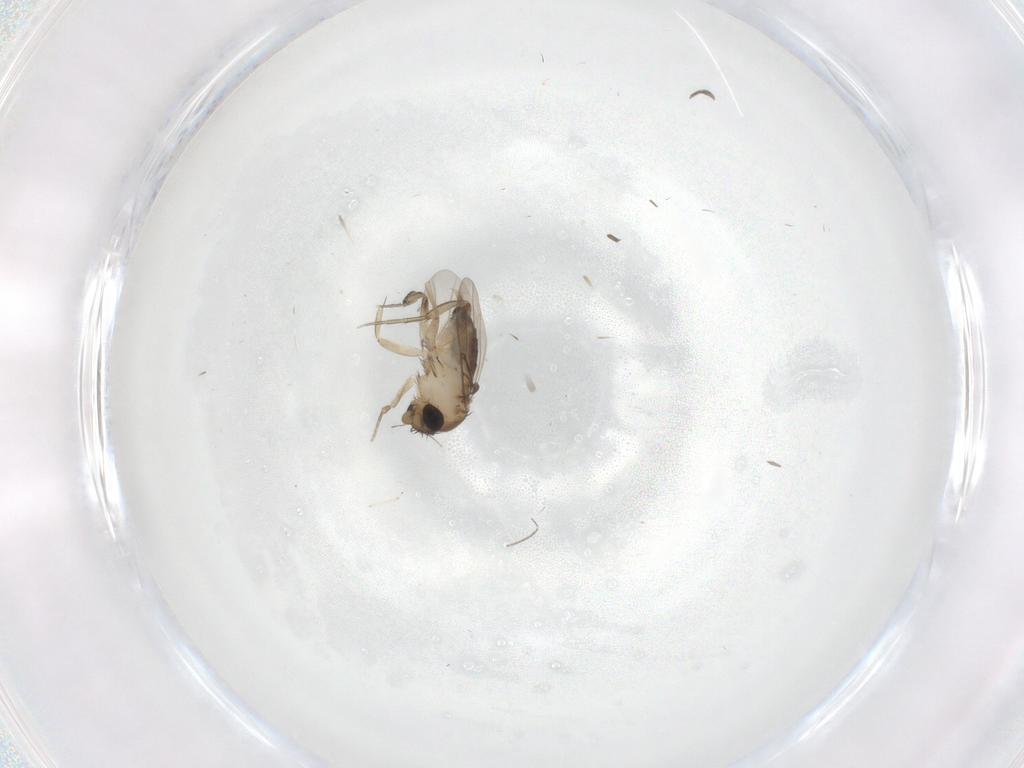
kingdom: Animalia
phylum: Arthropoda
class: Insecta
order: Diptera
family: Phoridae
